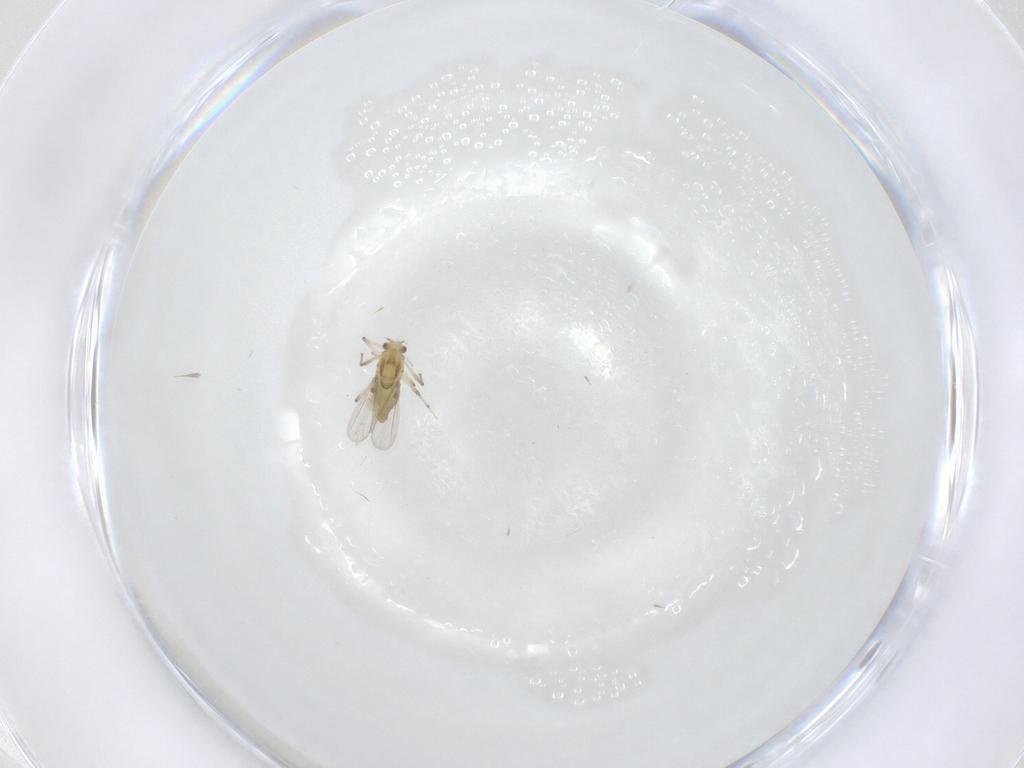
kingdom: Animalia
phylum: Arthropoda
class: Insecta
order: Diptera
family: Chironomidae
